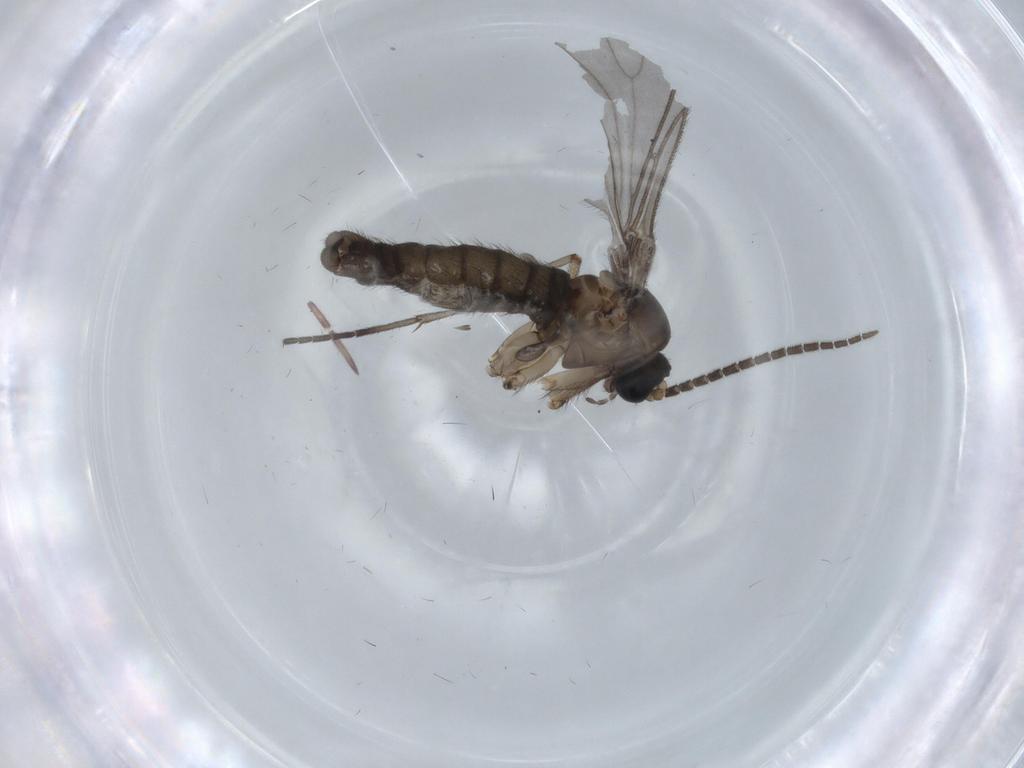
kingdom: Animalia
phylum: Arthropoda
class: Insecta
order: Diptera
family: Sciaridae
